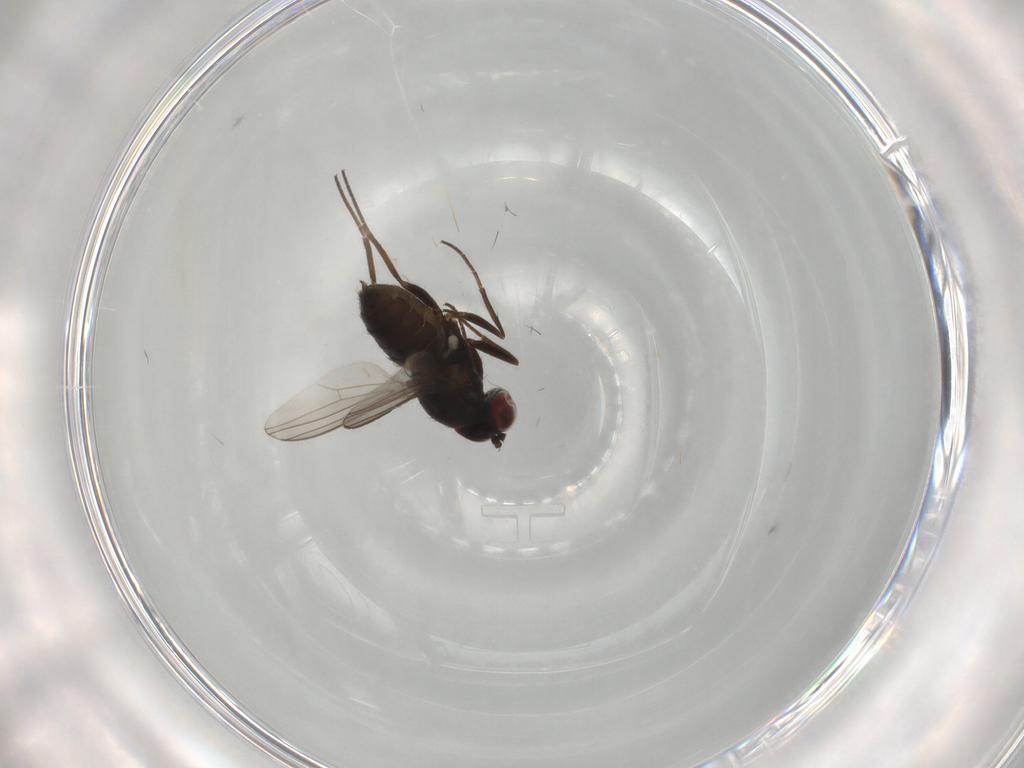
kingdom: Animalia
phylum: Arthropoda
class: Insecta
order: Diptera
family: Dolichopodidae
